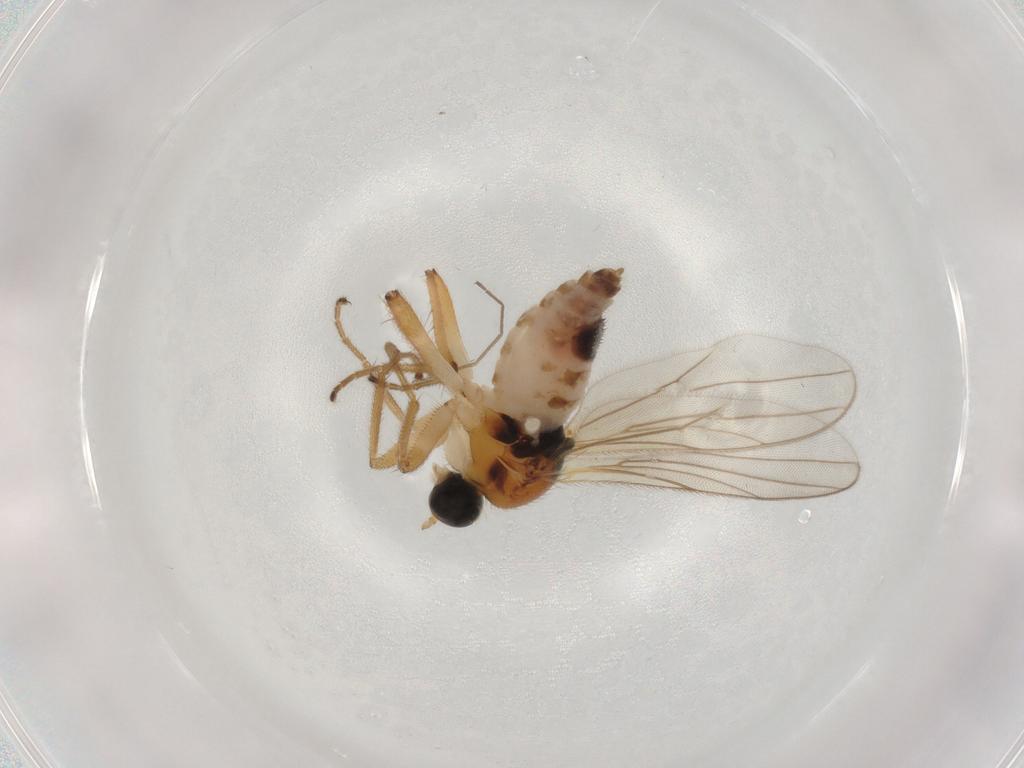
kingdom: Animalia
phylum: Arthropoda
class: Insecta
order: Diptera
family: Hybotidae
